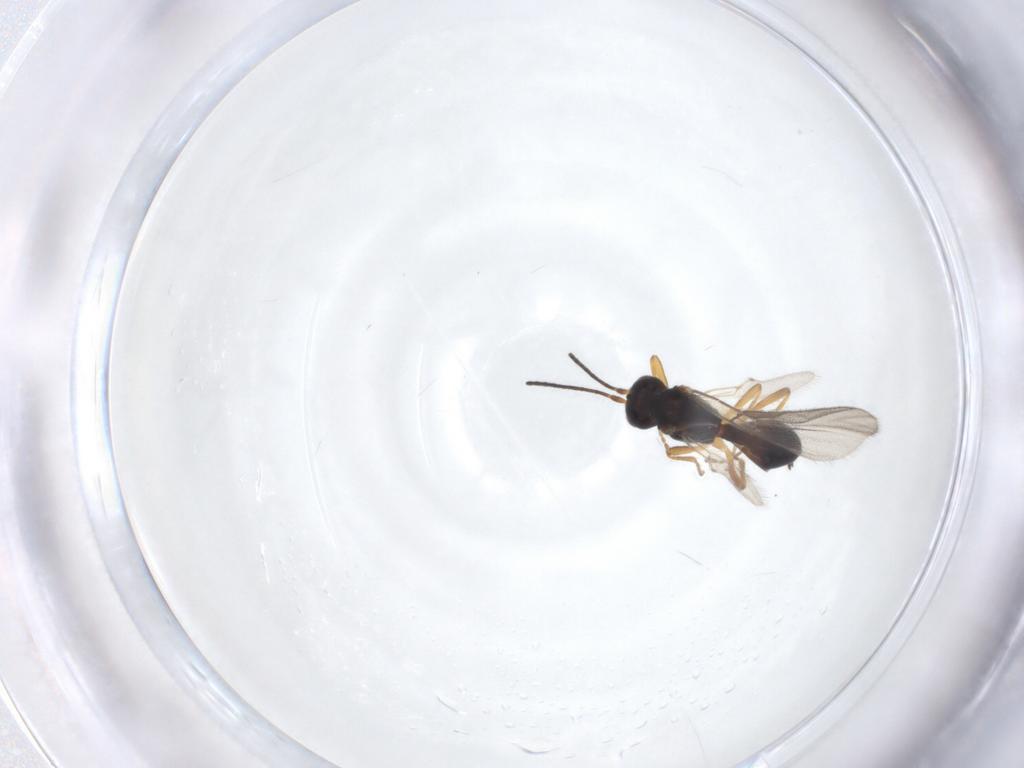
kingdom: Animalia
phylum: Arthropoda
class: Insecta
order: Hymenoptera
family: Braconidae
